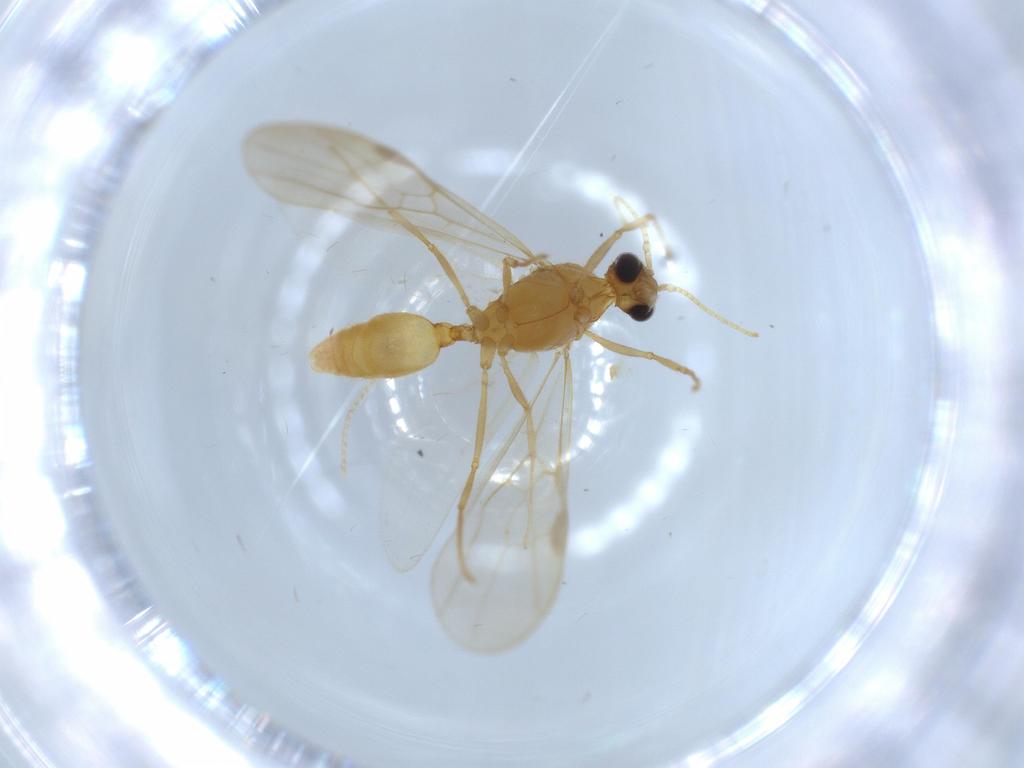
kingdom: Animalia
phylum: Arthropoda
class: Insecta
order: Hymenoptera
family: Formicidae
